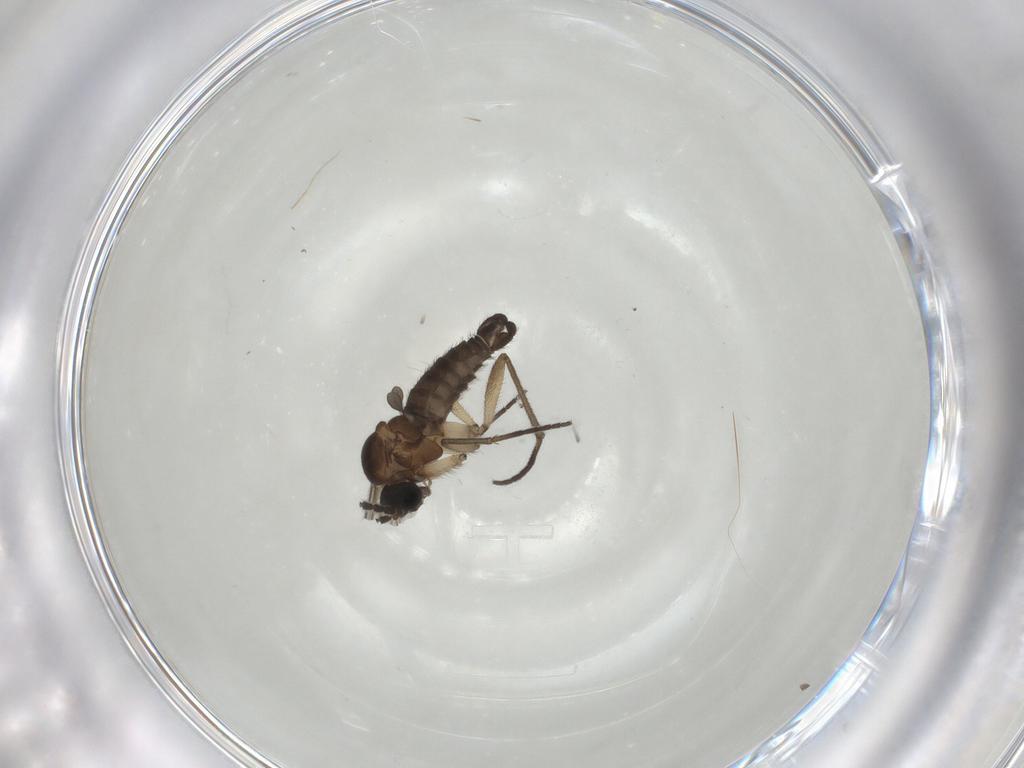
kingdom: Animalia
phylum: Arthropoda
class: Insecta
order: Diptera
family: Sciaridae
